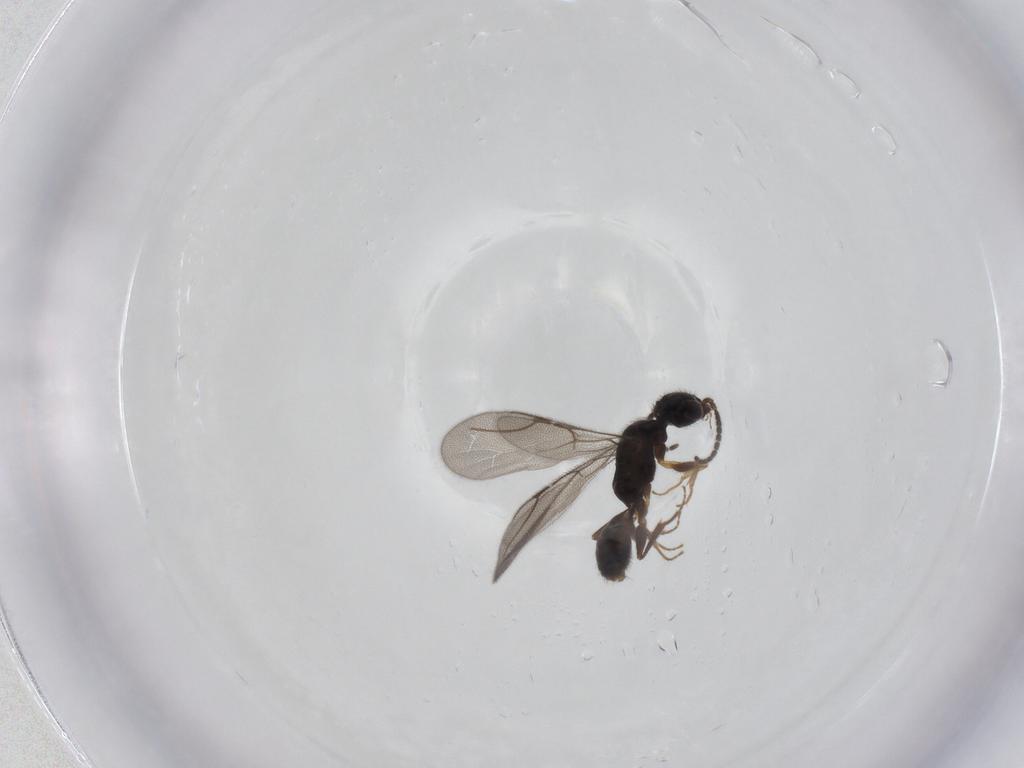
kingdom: Animalia
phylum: Arthropoda
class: Insecta
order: Hymenoptera
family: Bethylidae
